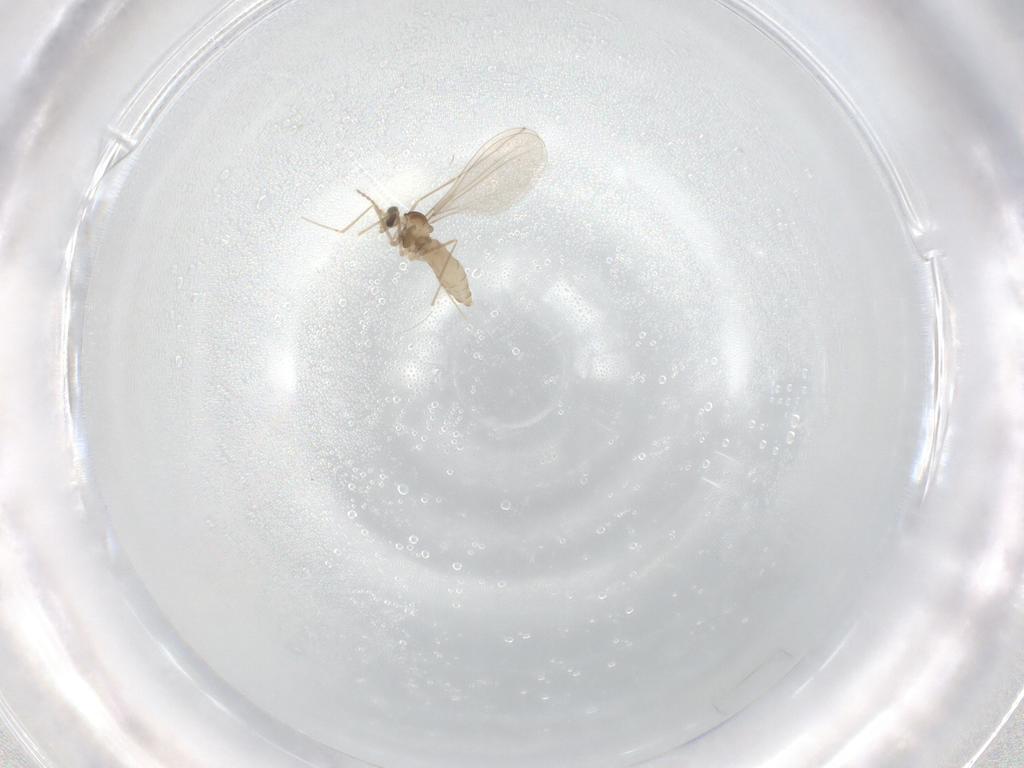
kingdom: Animalia
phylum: Arthropoda
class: Insecta
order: Diptera
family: Cecidomyiidae
